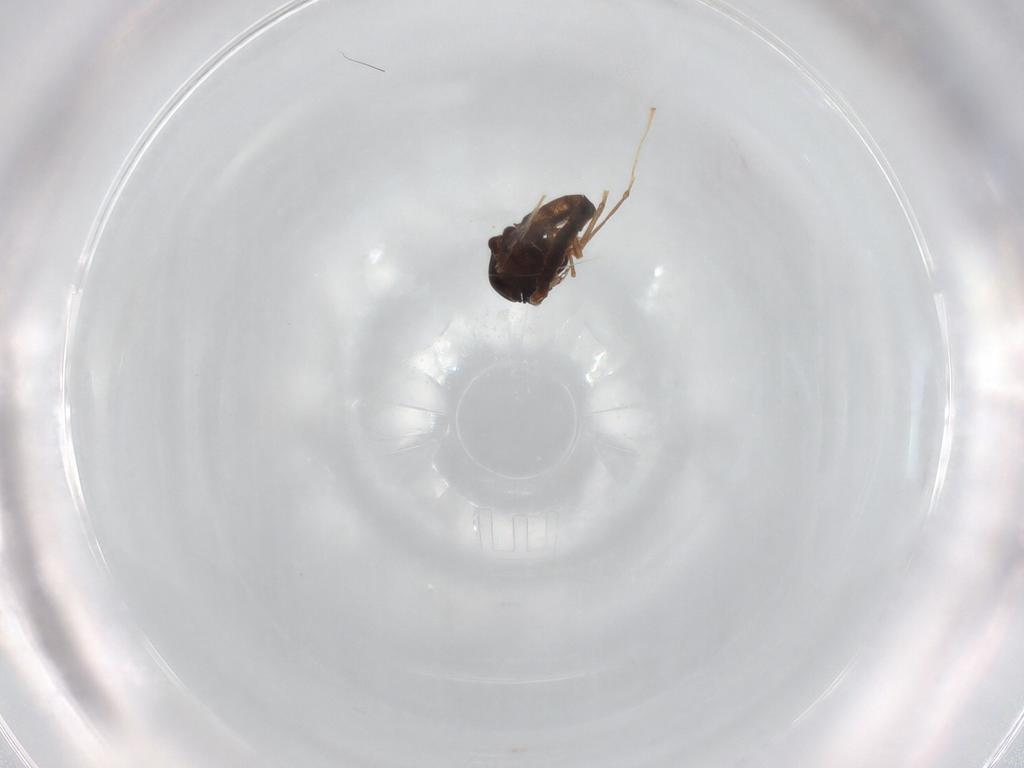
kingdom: Animalia
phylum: Arthropoda
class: Insecta
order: Diptera
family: Chironomidae
